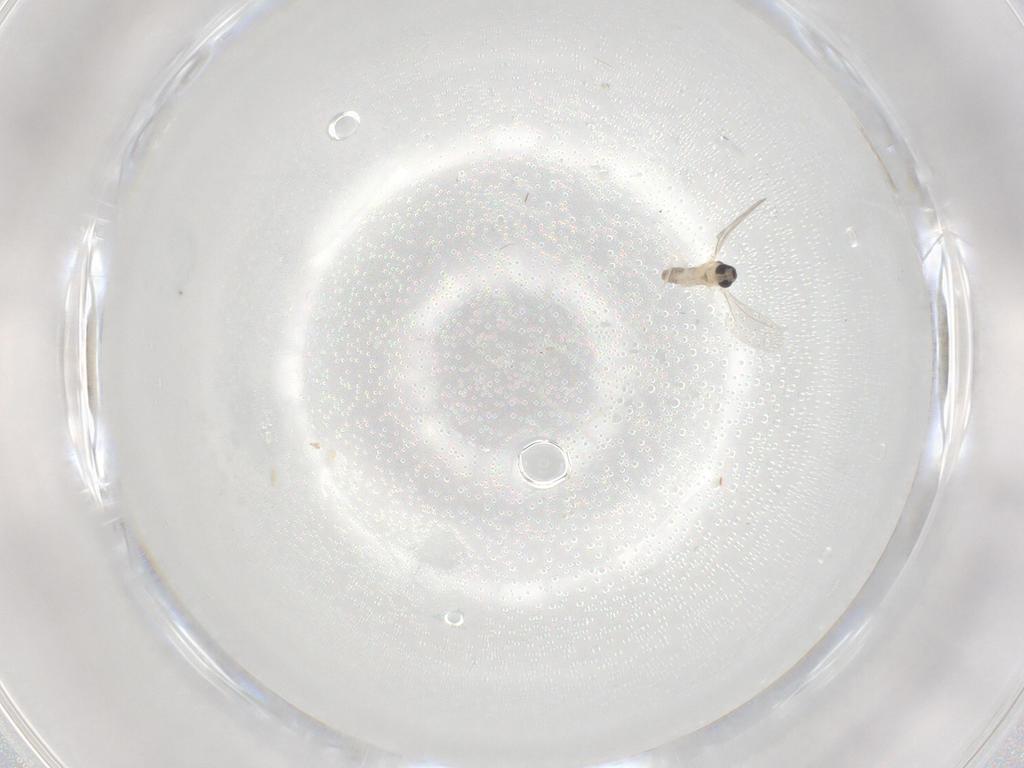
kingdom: Animalia
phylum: Arthropoda
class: Insecta
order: Diptera
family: Cecidomyiidae
